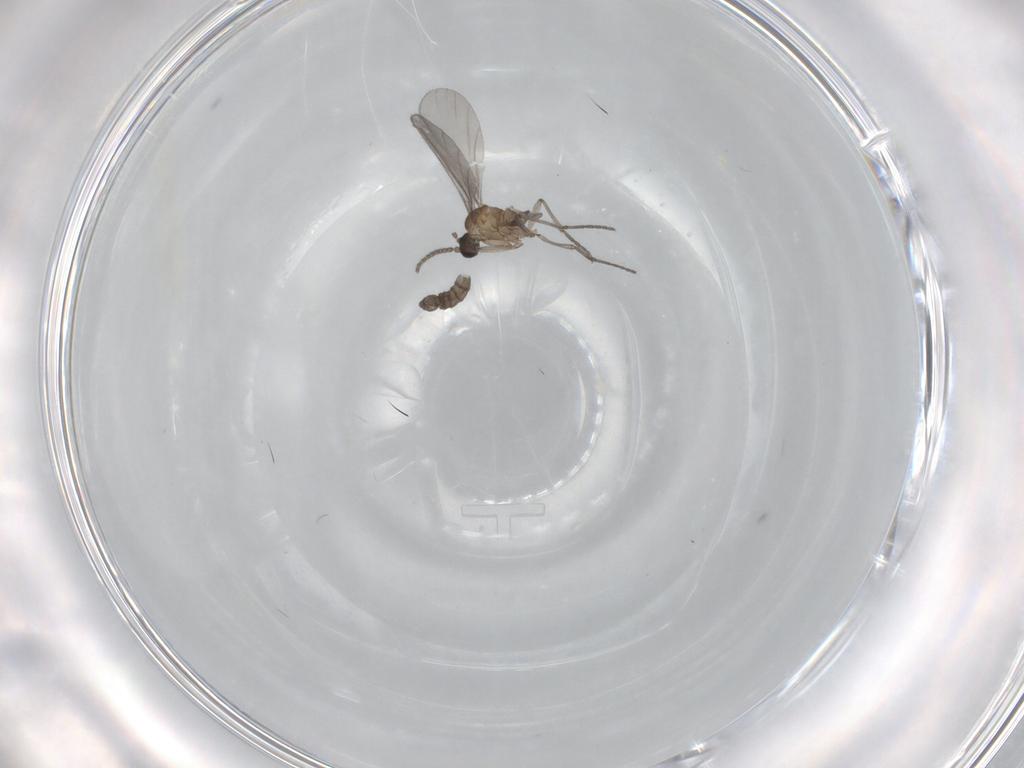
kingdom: Animalia
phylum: Arthropoda
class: Insecta
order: Diptera
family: Sciaridae
